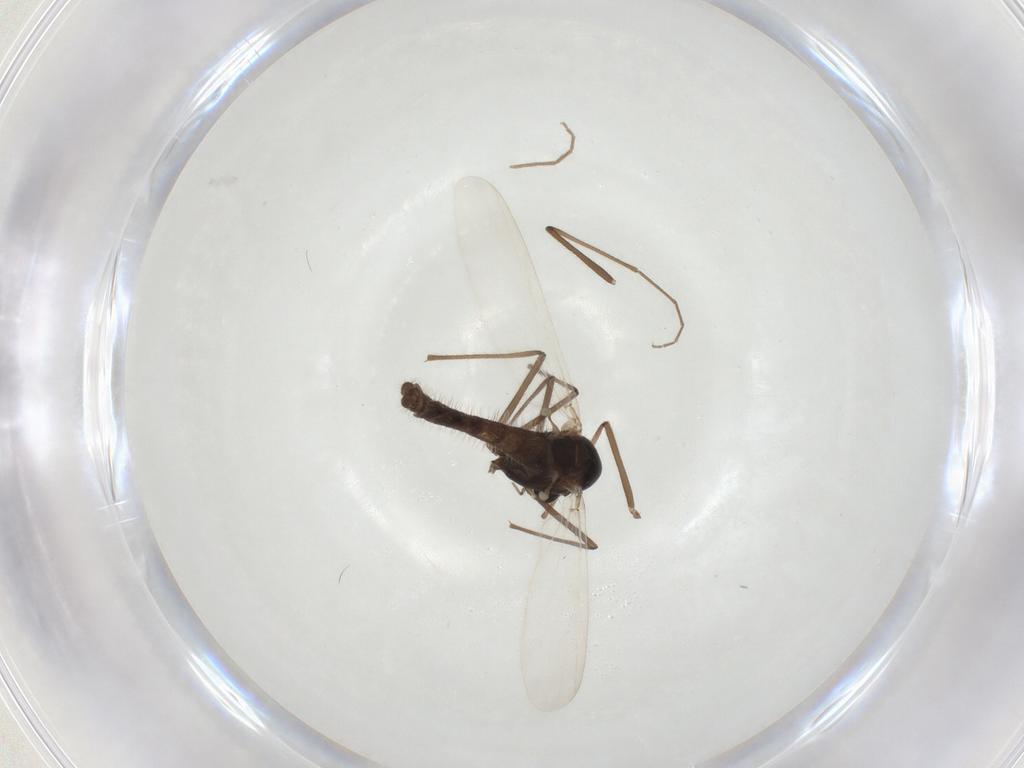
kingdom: Animalia
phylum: Arthropoda
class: Insecta
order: Diptera
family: Chironomidae
